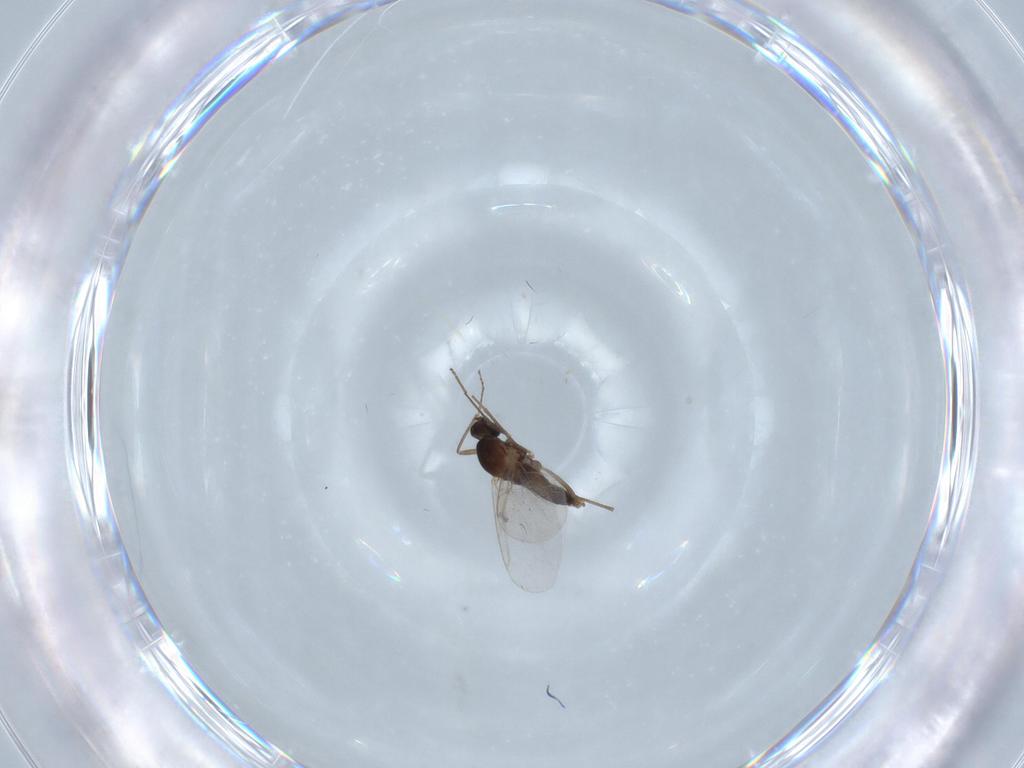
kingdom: Animalia
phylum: Arthropoda
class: Insecta
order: Diptera
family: Cecidomyiidae
